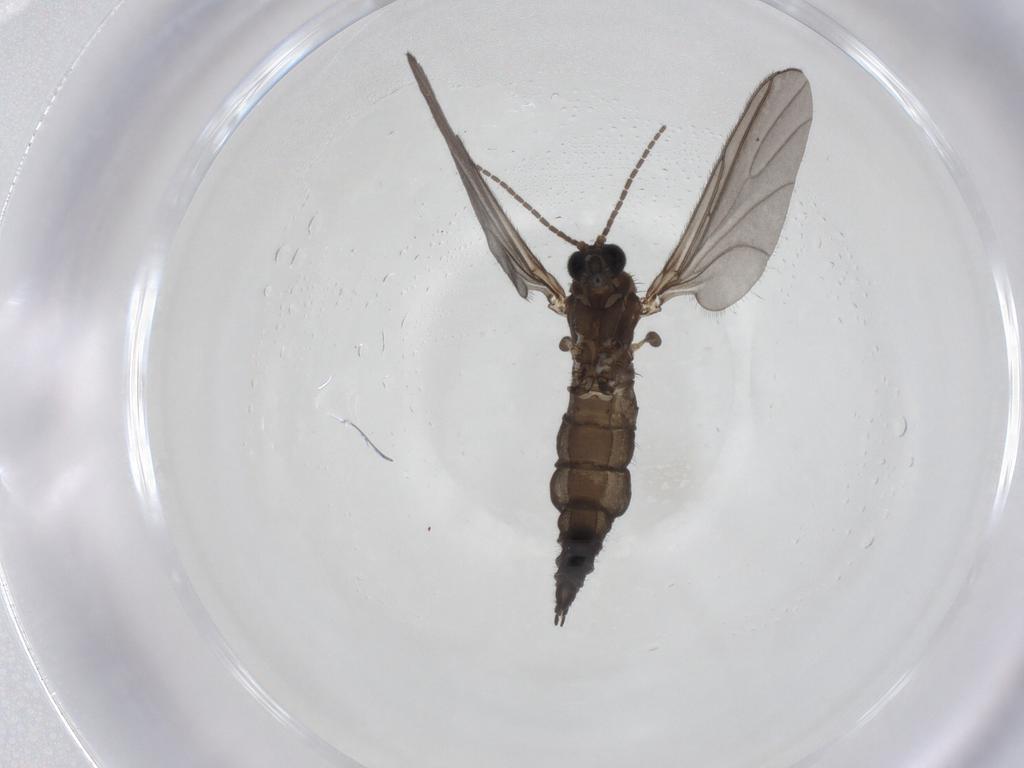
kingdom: Animalia
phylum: Arthropoda
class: Insecta
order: Diptera
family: Sciaridae
